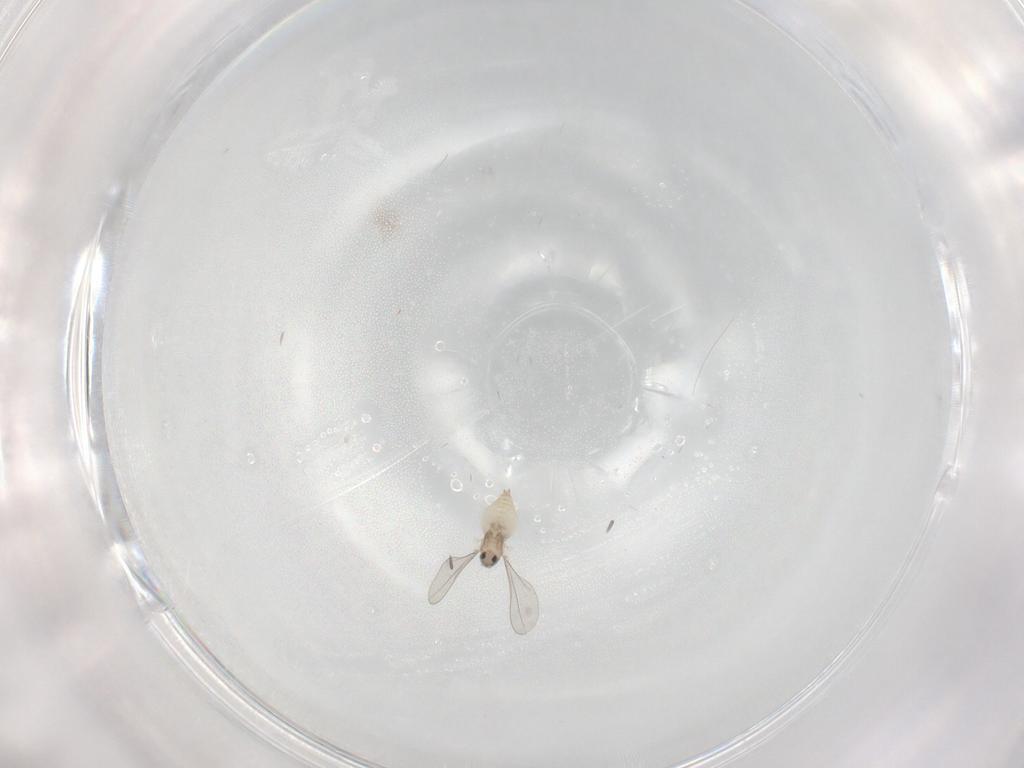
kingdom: Animalia
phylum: Arthropoda
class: Insecta
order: Diptera
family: Cecidomyiidae
